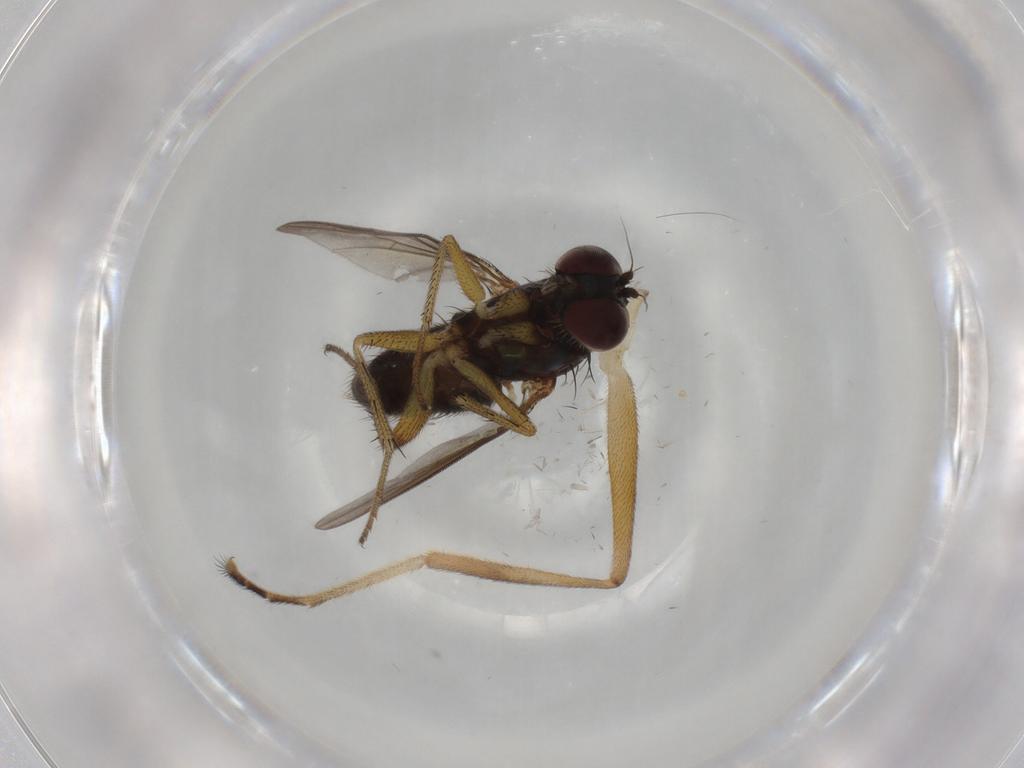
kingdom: Animalia
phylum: Arthropoda
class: Insecta
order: Diptera
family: Dolichopodidae
